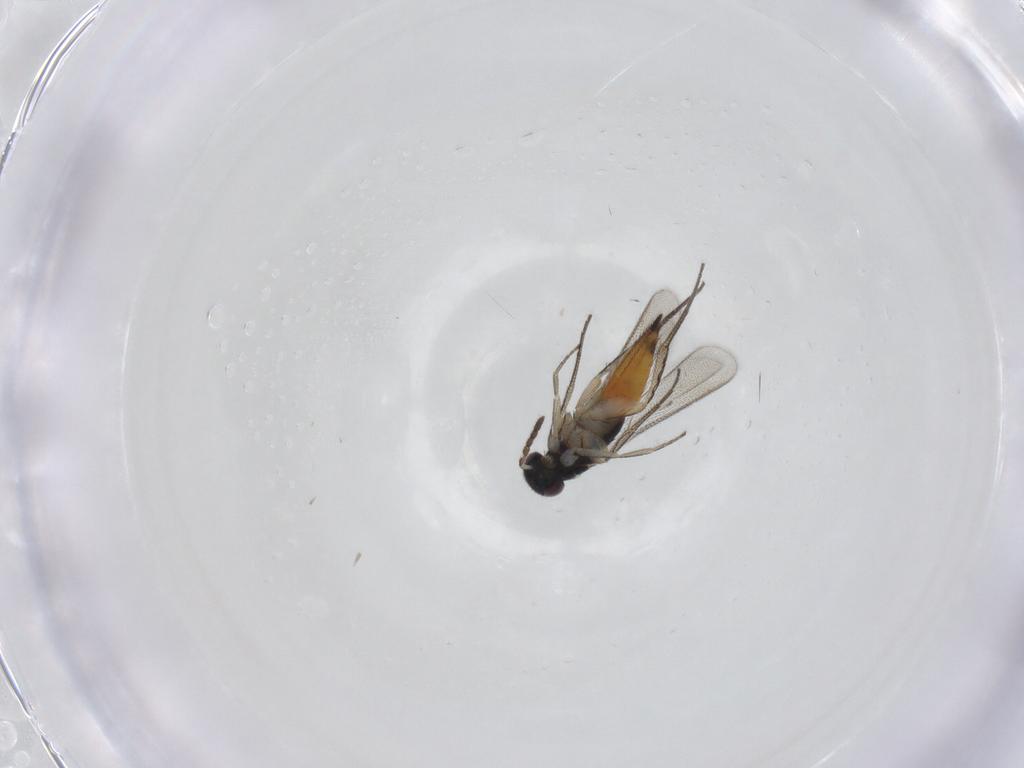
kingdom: Animalia
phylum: Arthropoda
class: Insecta
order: Hymenoptera
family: Eulophidae
